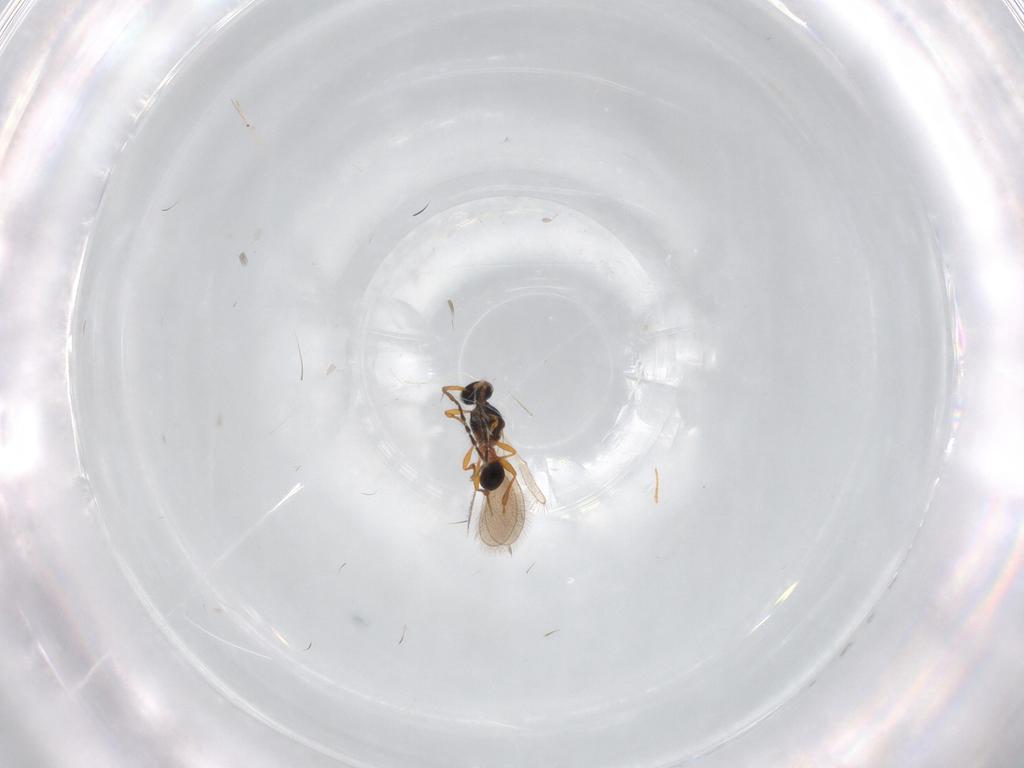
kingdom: Animalia
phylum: Arthropoda
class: Insecta
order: Hymenoptera
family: Platygastridae
